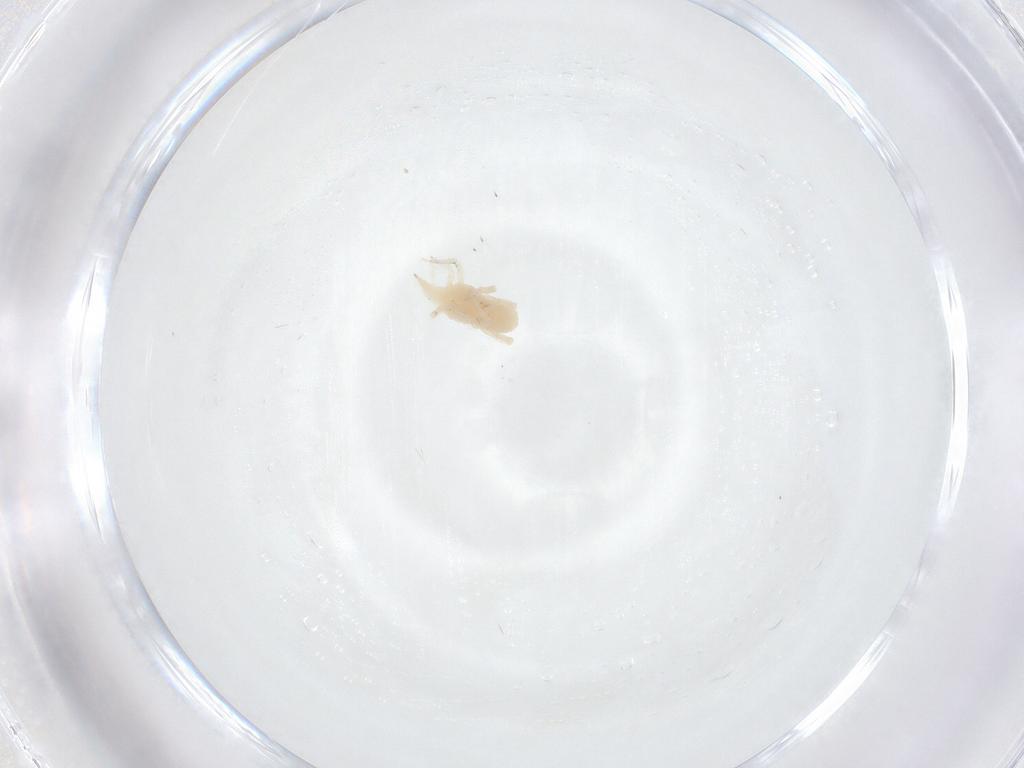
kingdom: Animalia
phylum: Arthropoda
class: Arachnida
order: Trombidiformes
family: Bdellidae
